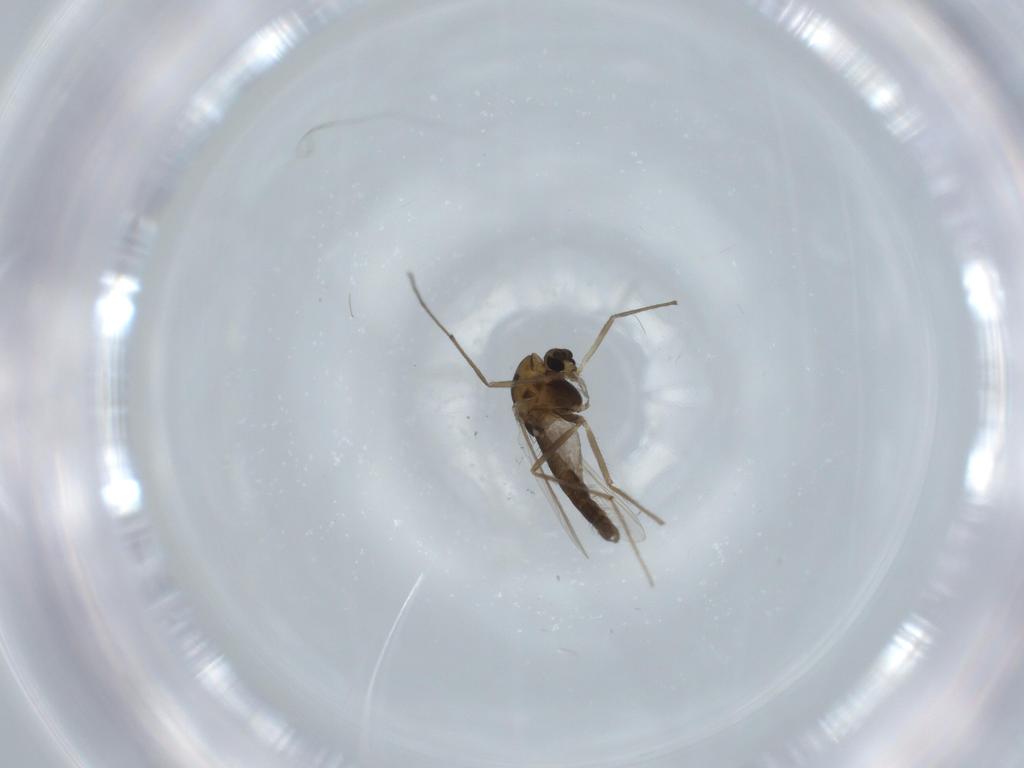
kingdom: Animalia
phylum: Arthropoda
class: Insecta
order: Diptera
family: Chironomidae
